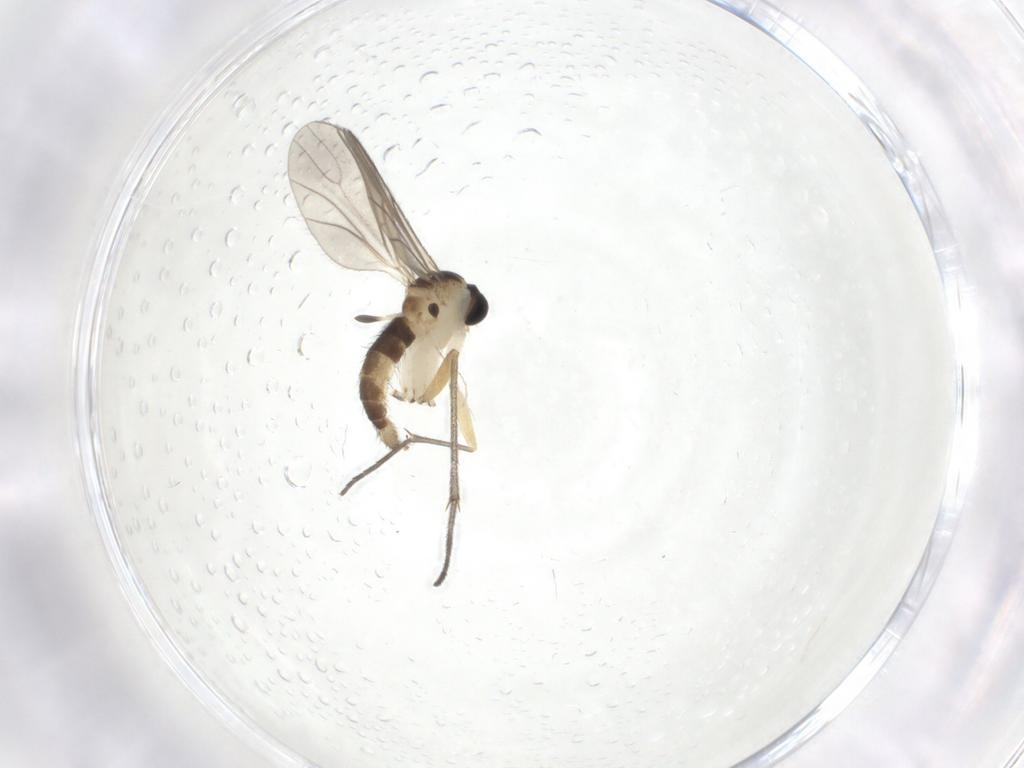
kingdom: Animalia
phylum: Arthropoda
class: Insecta
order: Diptera
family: Sciaridae
